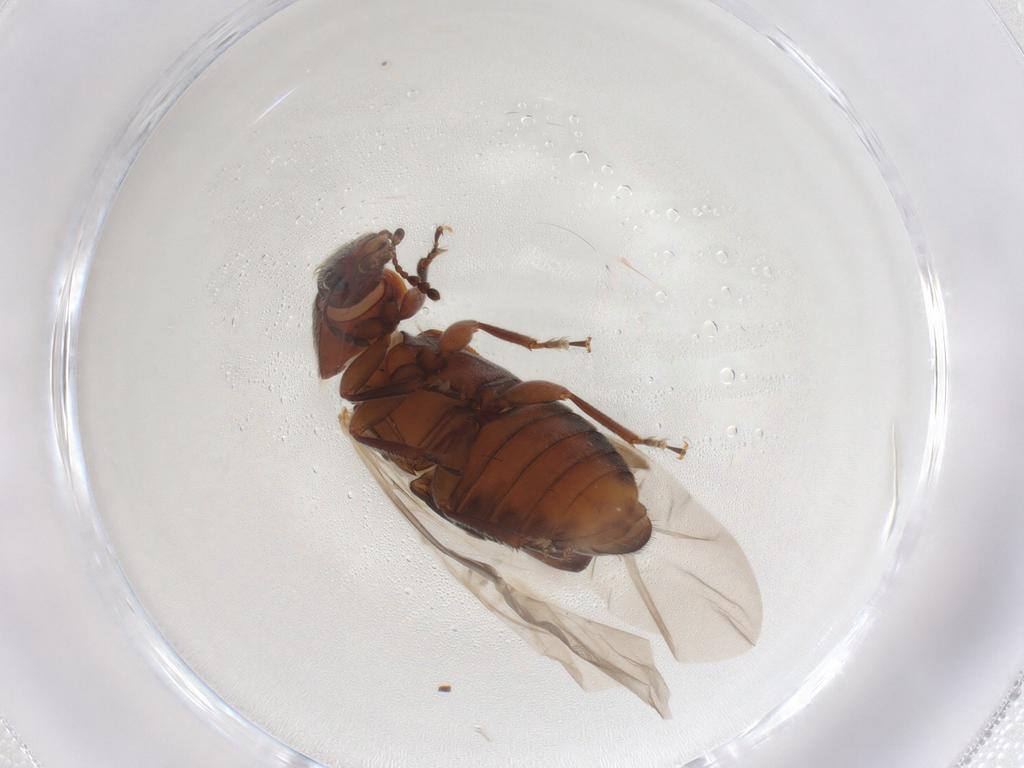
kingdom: Animalia
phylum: Arthropoda
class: Insecta
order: Coleoptera
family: Byturidae
